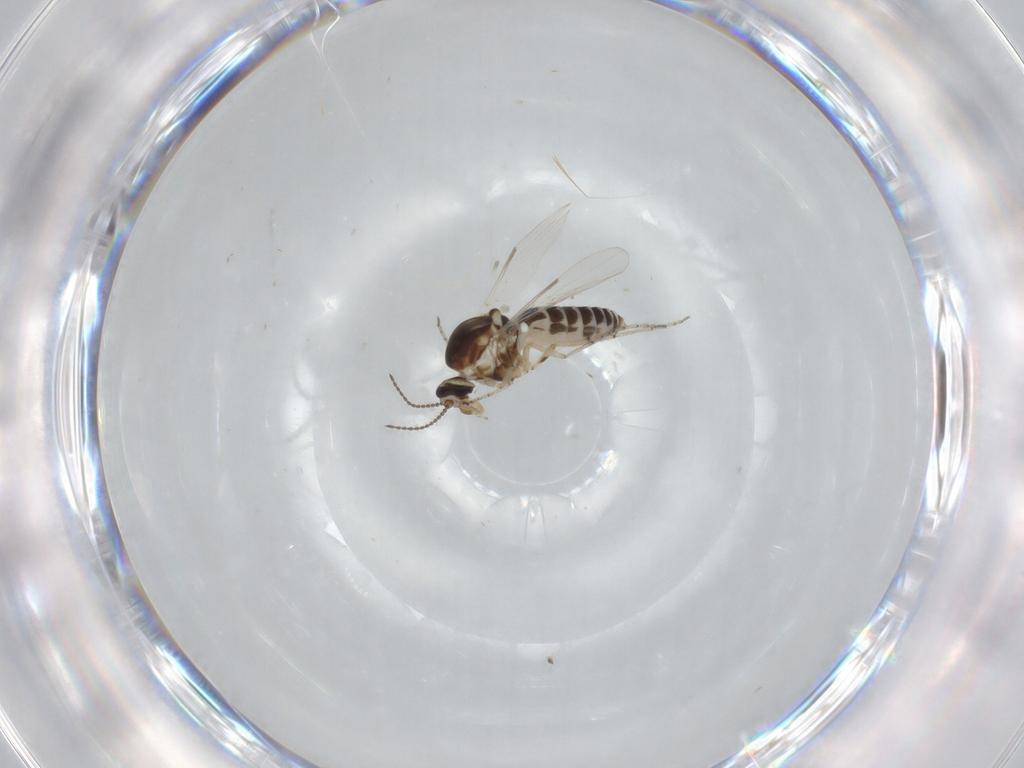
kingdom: Animalia
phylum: Arthropoda
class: Insecta
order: Diptera
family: Ceratopogonidae
